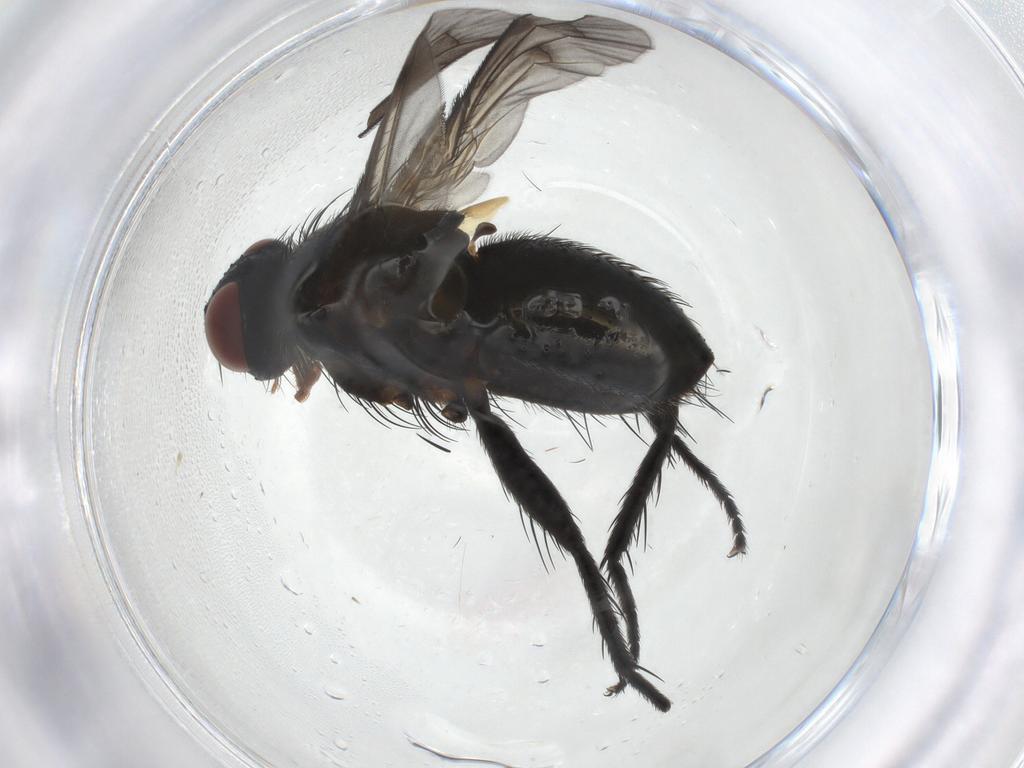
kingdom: Animalia
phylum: Arthropoda
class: Insecta
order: Diptera
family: Tachinidae
